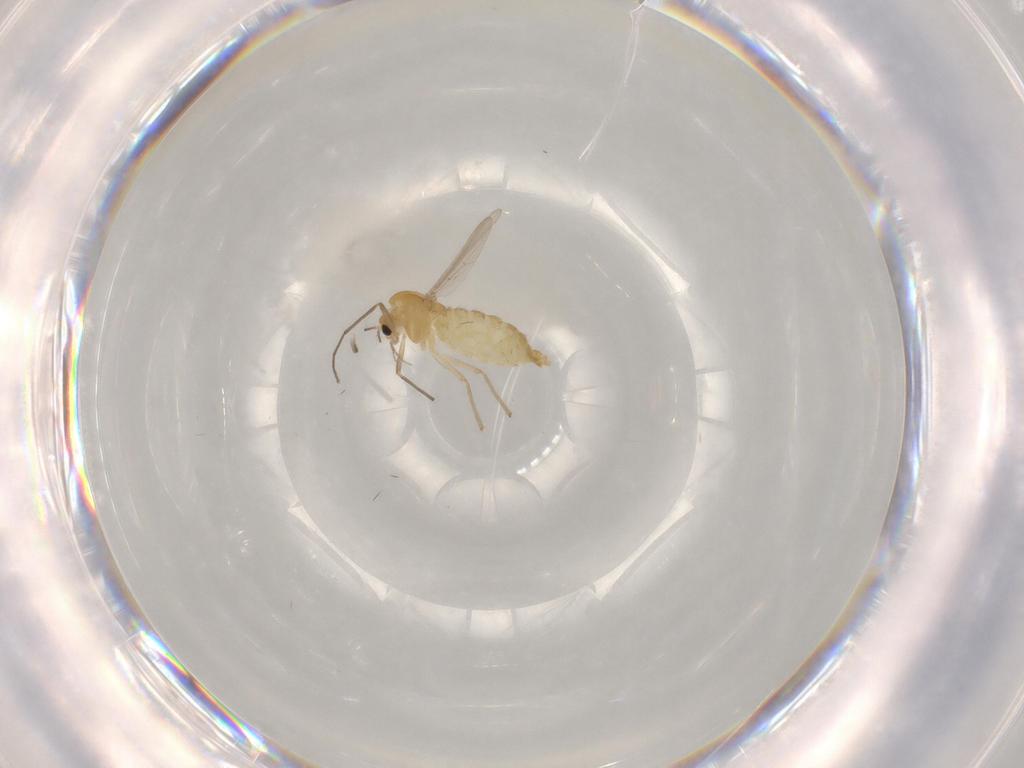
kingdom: Animalia
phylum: Arthropoda
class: Insecta
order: Diptera
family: Chironomidae
